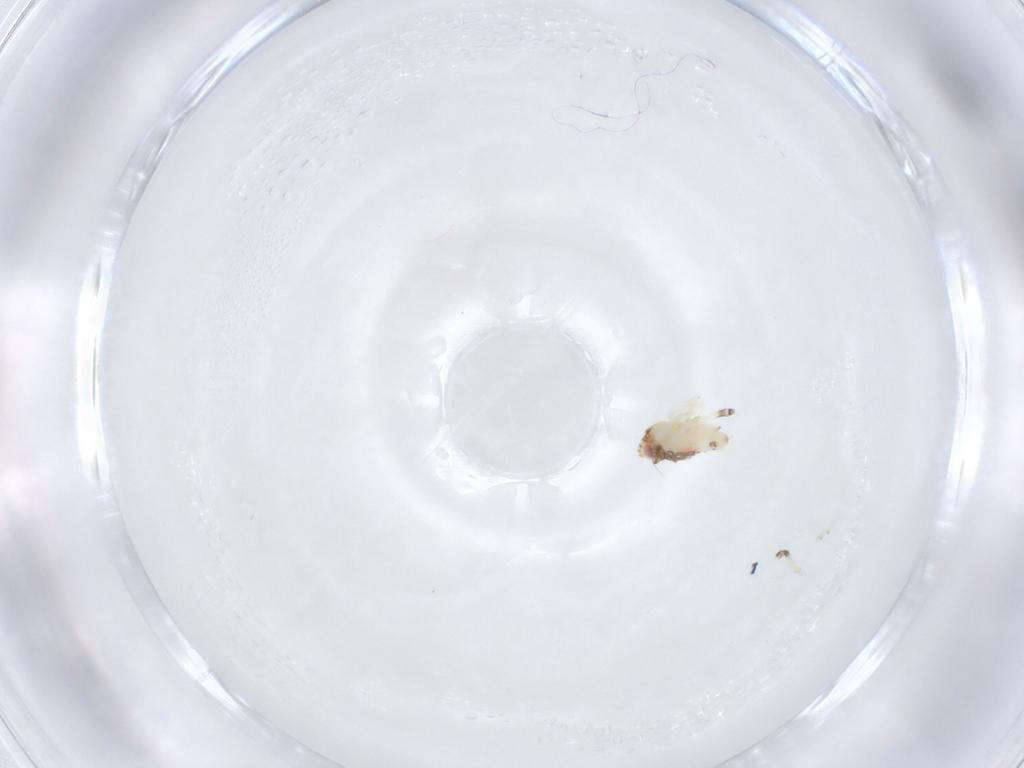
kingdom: Animalia
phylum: Arthropoda
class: Insecta
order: Hemiptera
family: Nogodinidae
